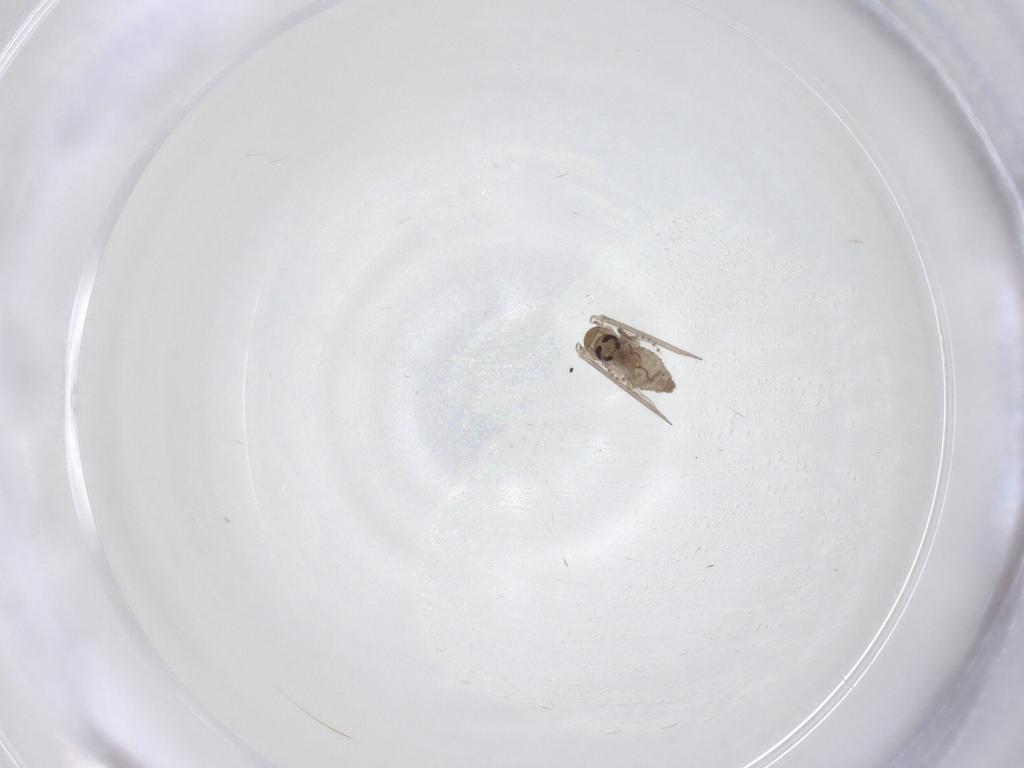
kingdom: Animalia
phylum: Arthropoda
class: Insecta
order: Diptera
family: Psychodidae
